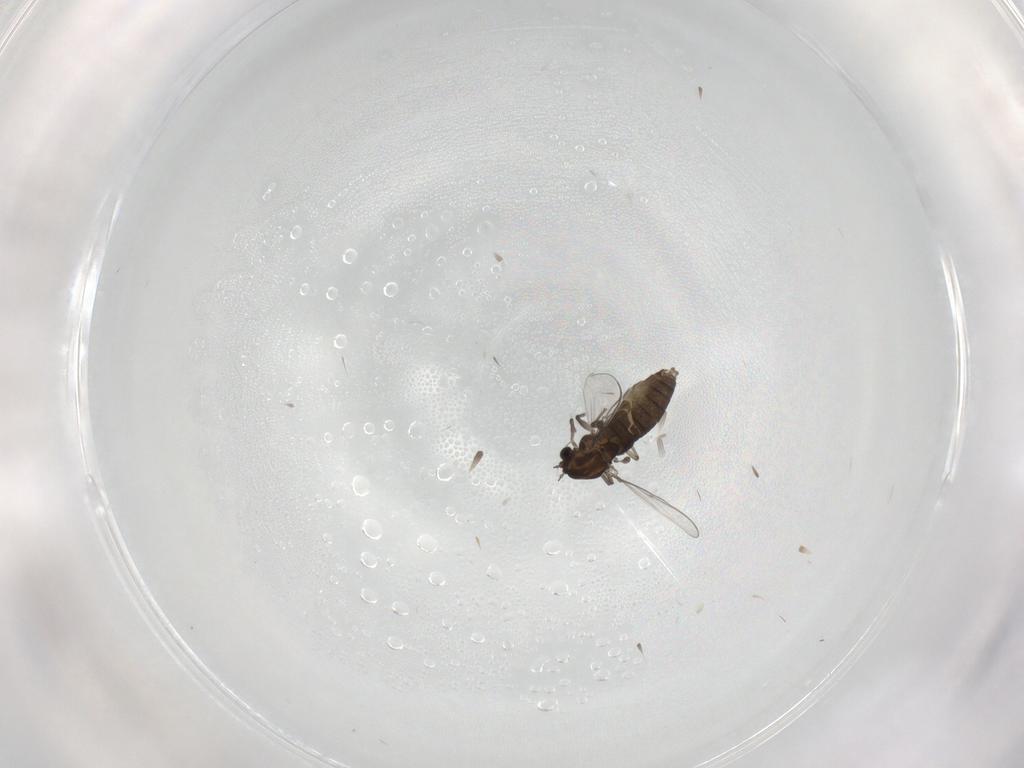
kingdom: Animalia
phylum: Arthropoda
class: Insecta
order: Diptera
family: Chironomidae
